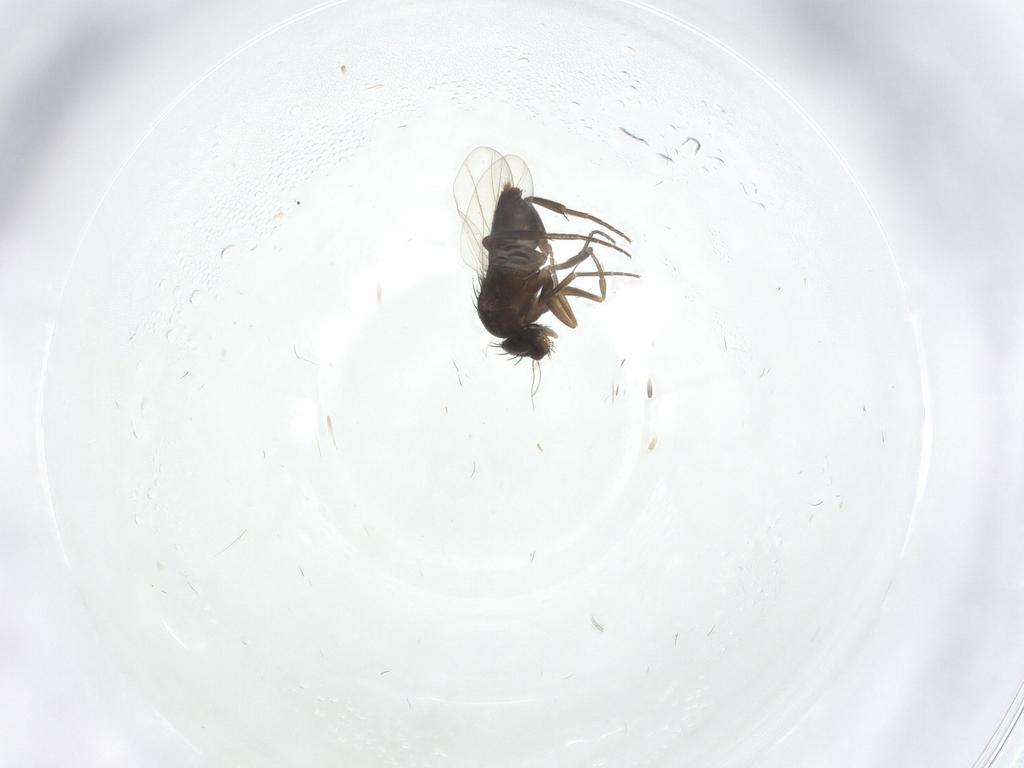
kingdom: Animalia
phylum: Arthropoda
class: Insecta
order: Diptera
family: Phoridae
